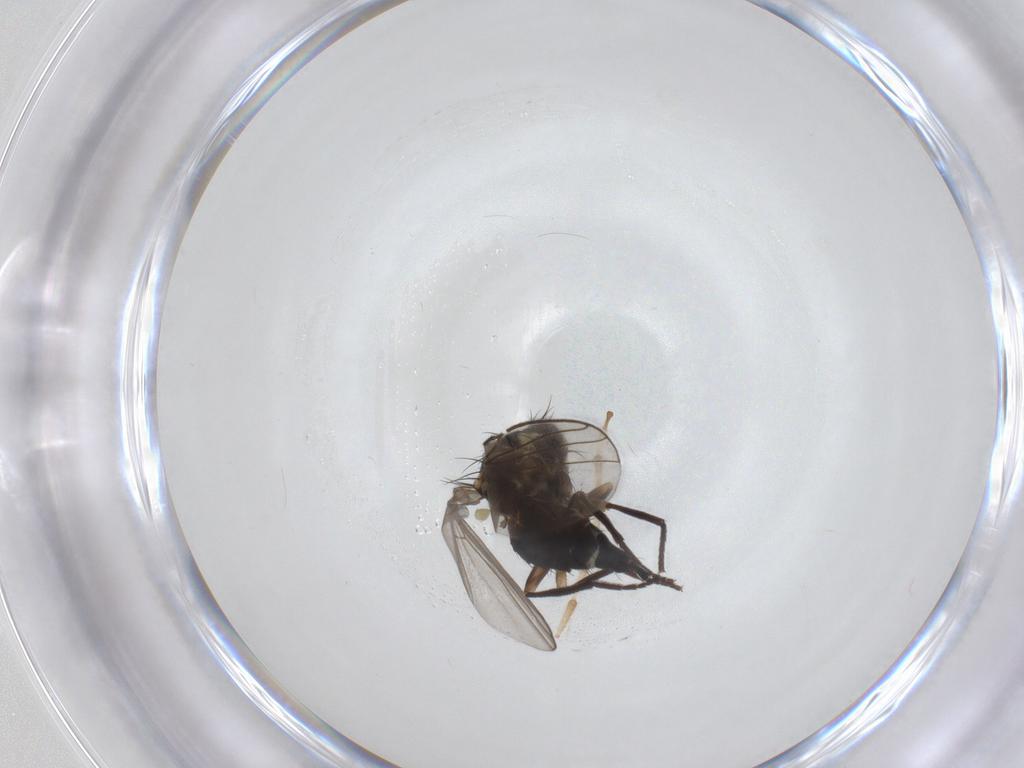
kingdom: Animalia
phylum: Arthropoda
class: Insecta
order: Diptera
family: Agromyzidae
